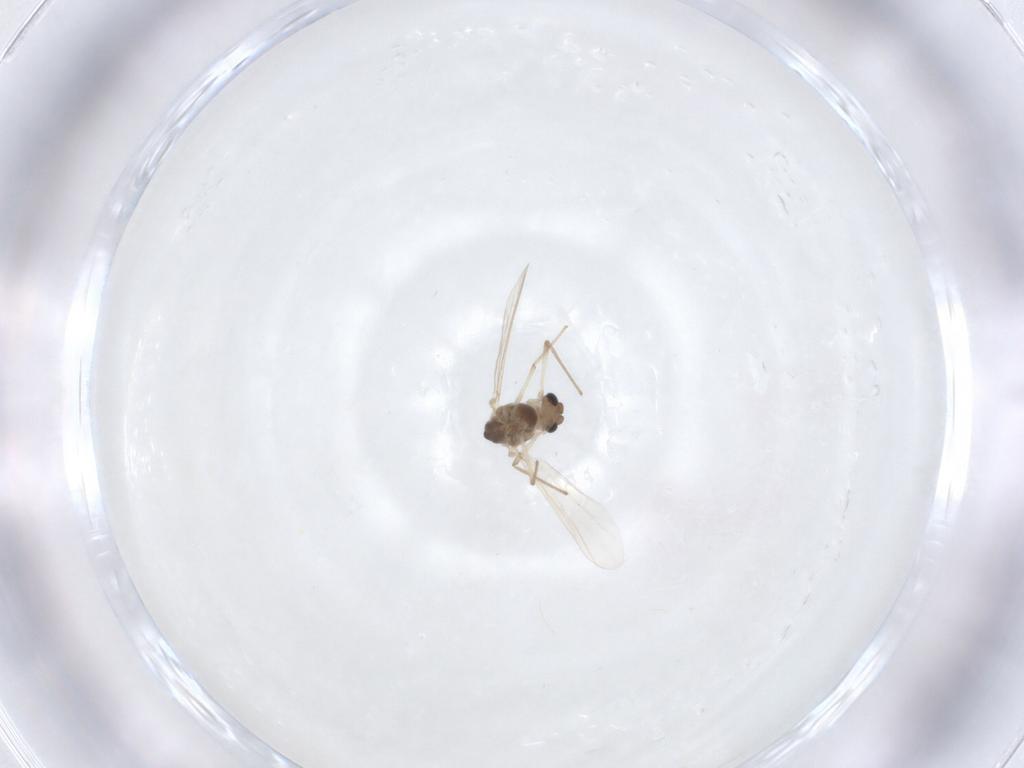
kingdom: Animalia
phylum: Arthropoda
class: Insecta
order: Diptera
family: Chironomidae
